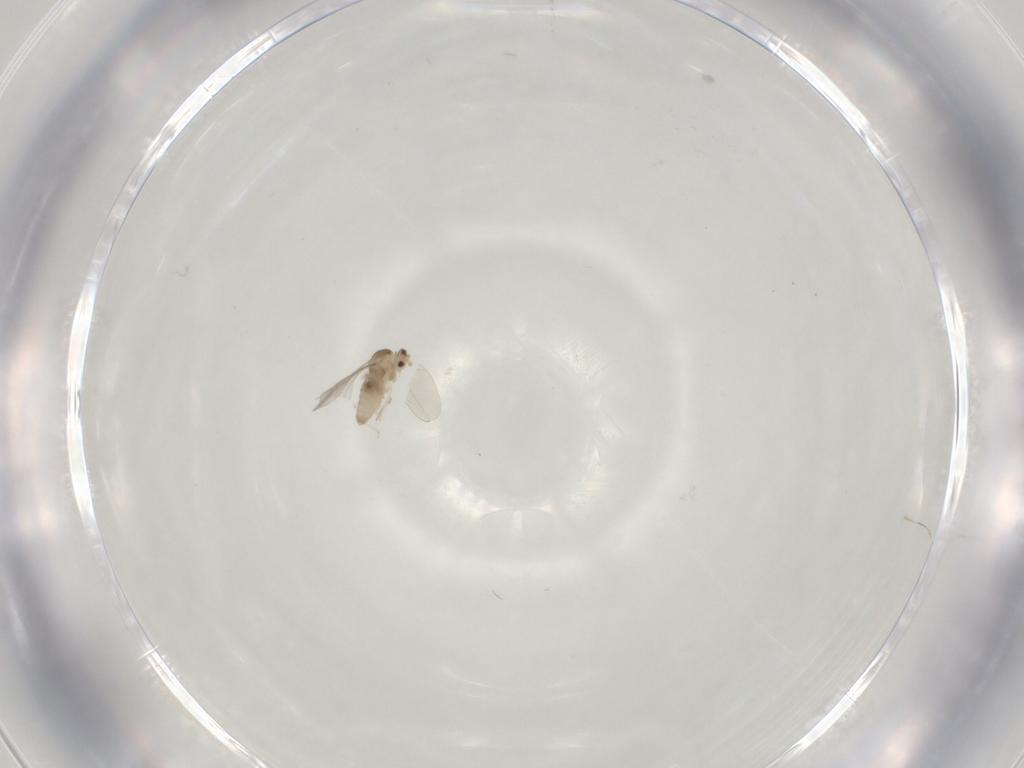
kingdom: Animalia
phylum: Arthropoda
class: Insecta
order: Diptera
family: Cecidomyiidae
